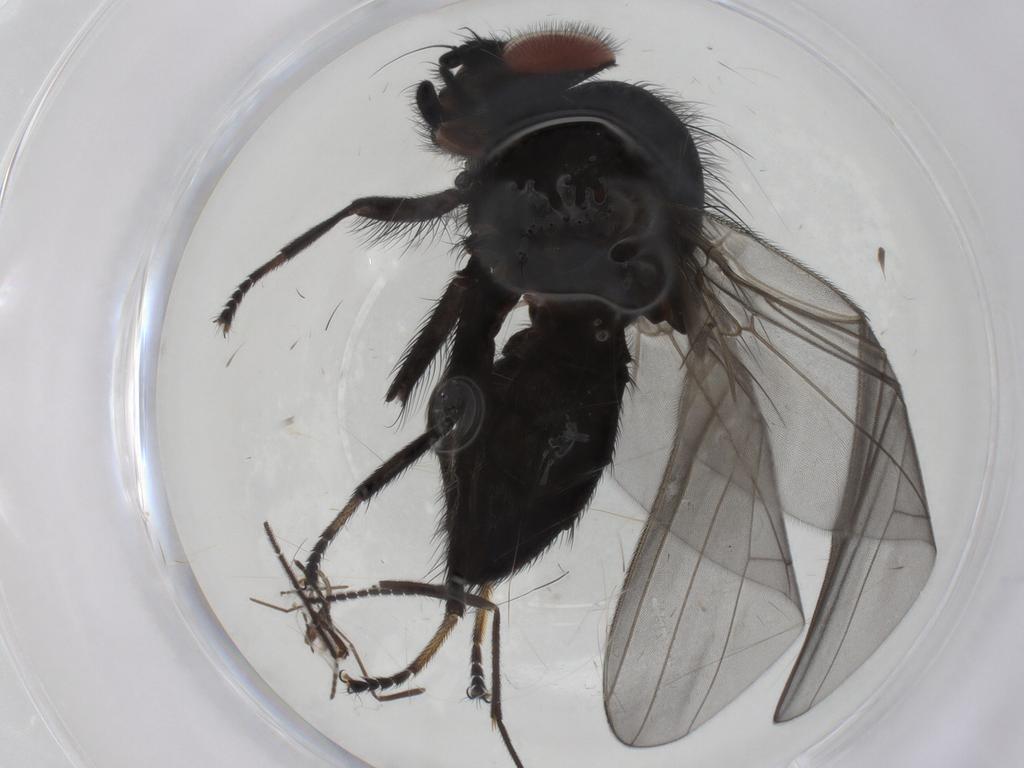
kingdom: Animalia
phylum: Arthropoda
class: Insecta
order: Diptera
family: Sciaridae
